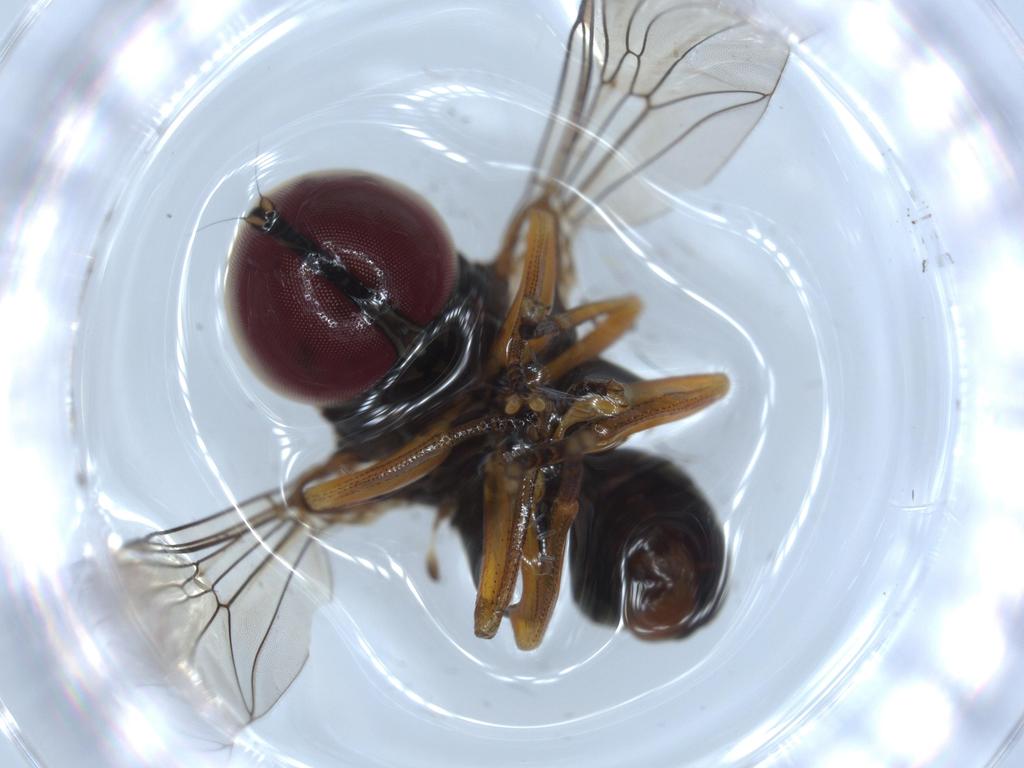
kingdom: Animalia
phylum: Arthropoda
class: Insecta
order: Diptera
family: Pipunculidae
